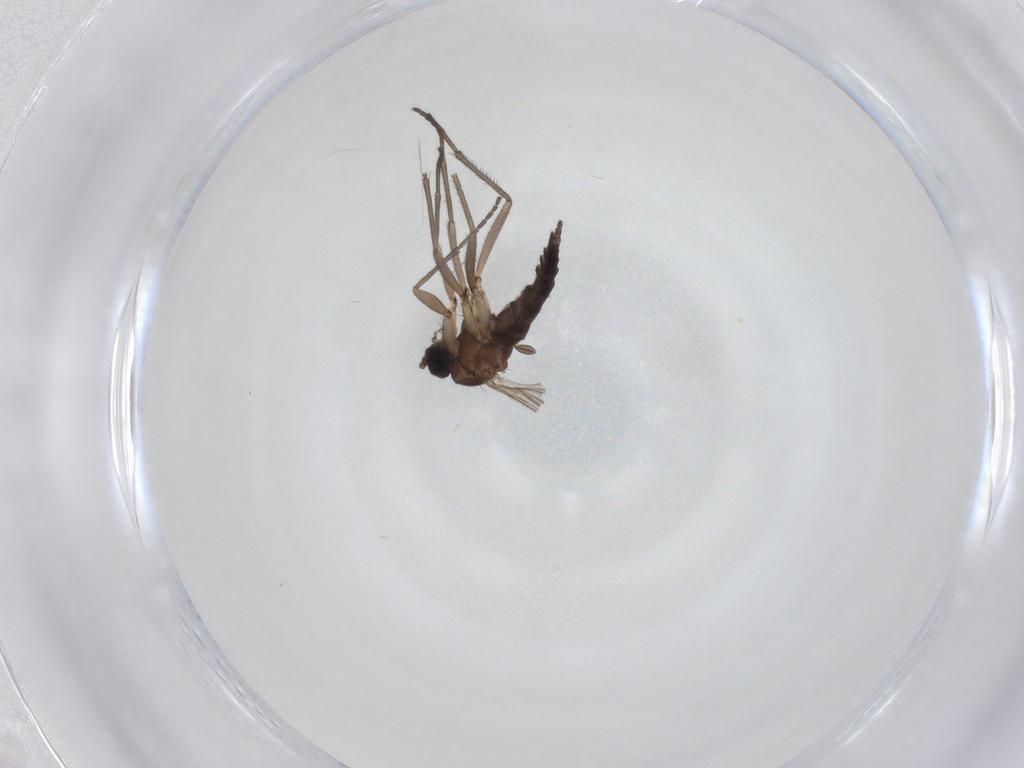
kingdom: Animalia
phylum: Arthropoda
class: Insecta
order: Diptera
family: Sciaridae
